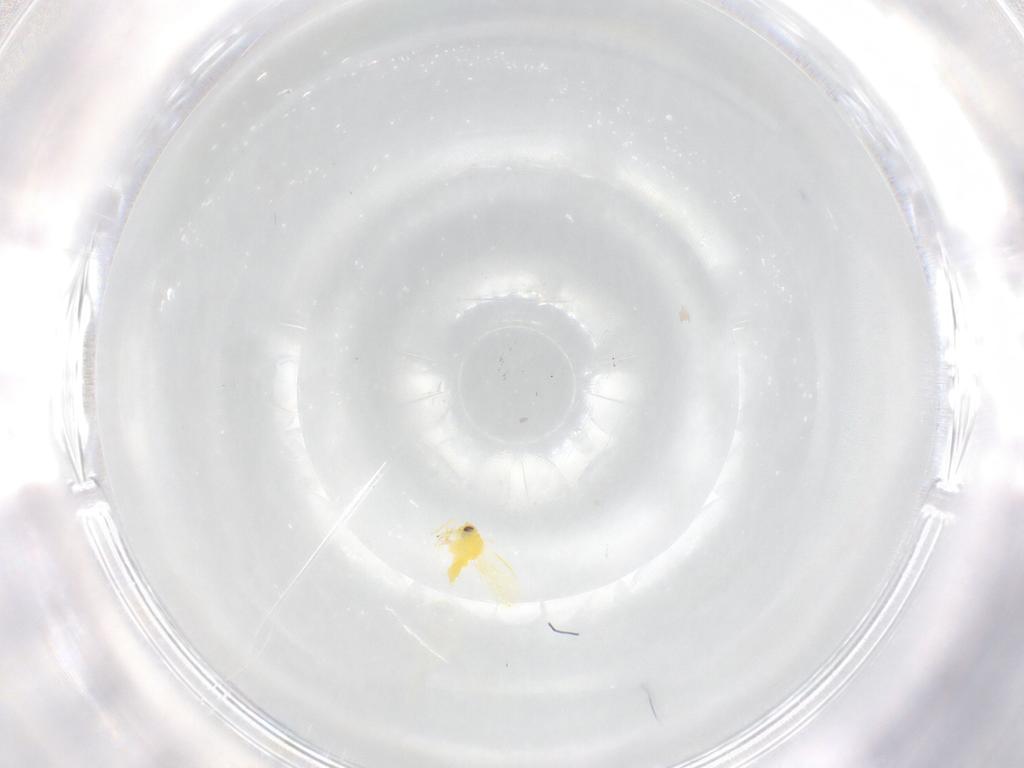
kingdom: Animalia
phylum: Arthropoda
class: Insecta
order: Hemiptera
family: Aleyrodidae
